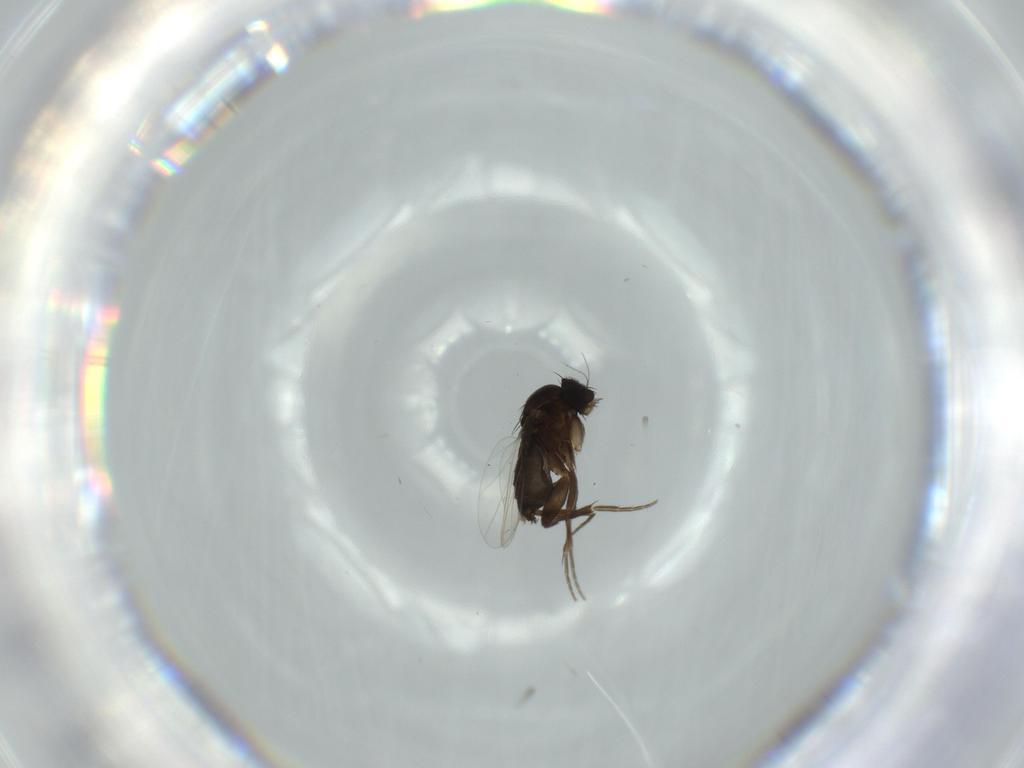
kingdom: Animalia
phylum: Arthropoda
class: Insecta
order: Diptera
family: Phoridae
